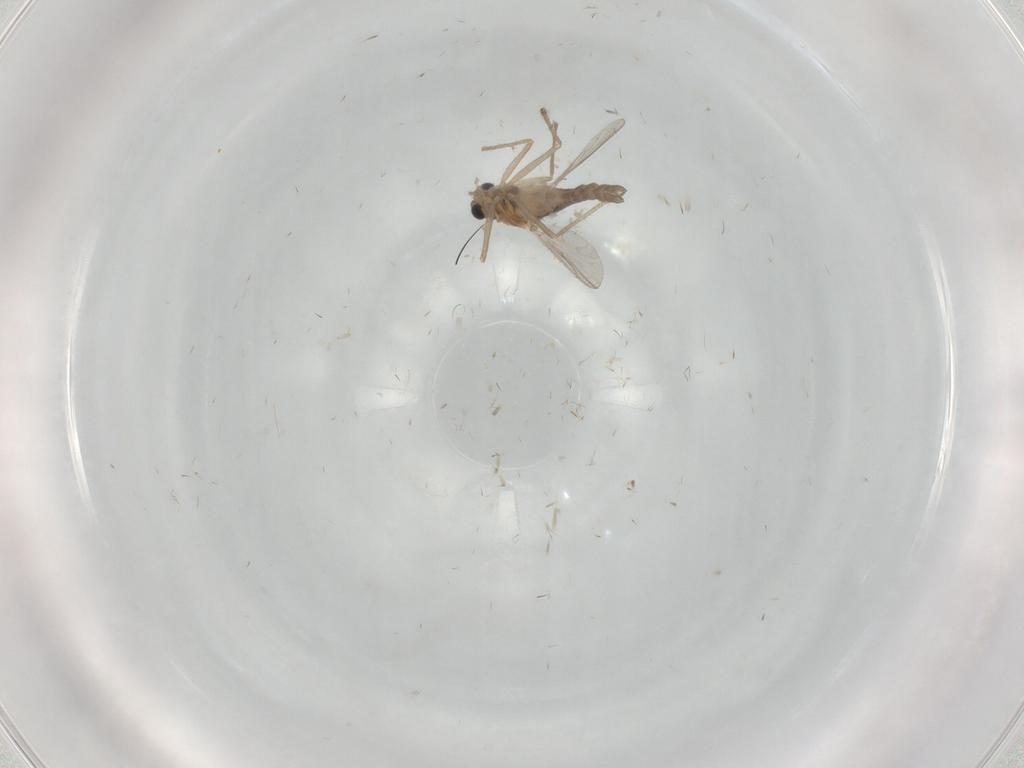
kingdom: Animalia
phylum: Arthropoda
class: Insecta
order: Diptera
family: Chironomidae
